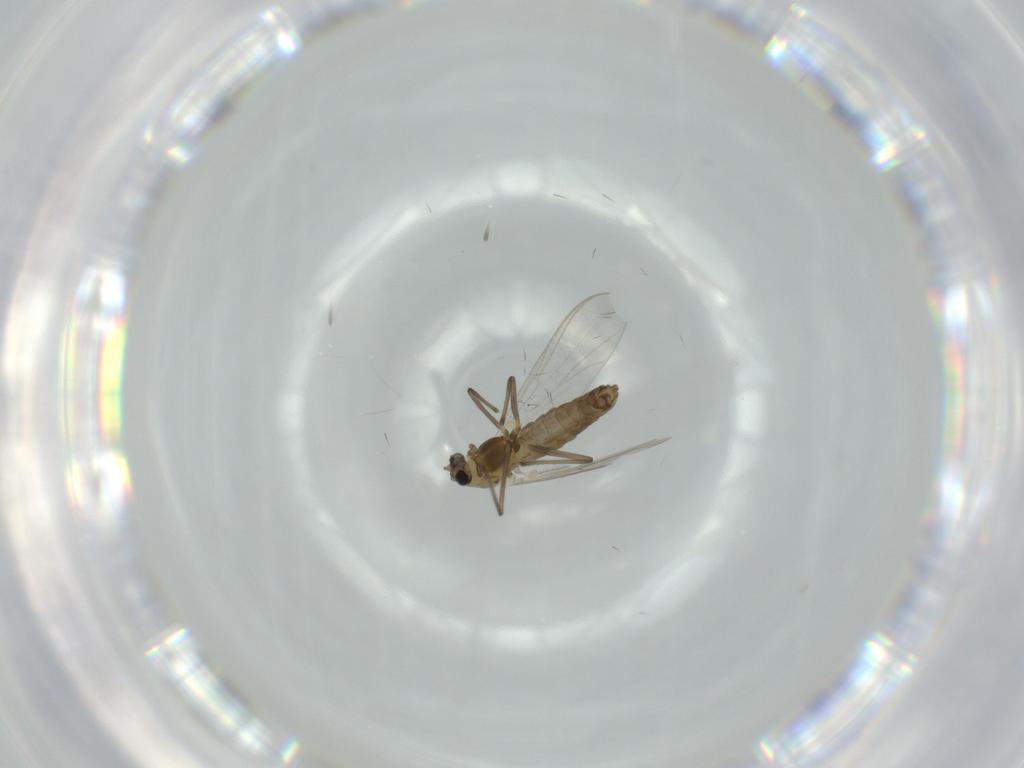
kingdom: Animalia
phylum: Arthropoda
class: Insecta
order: Diptera
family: Chironomidae
